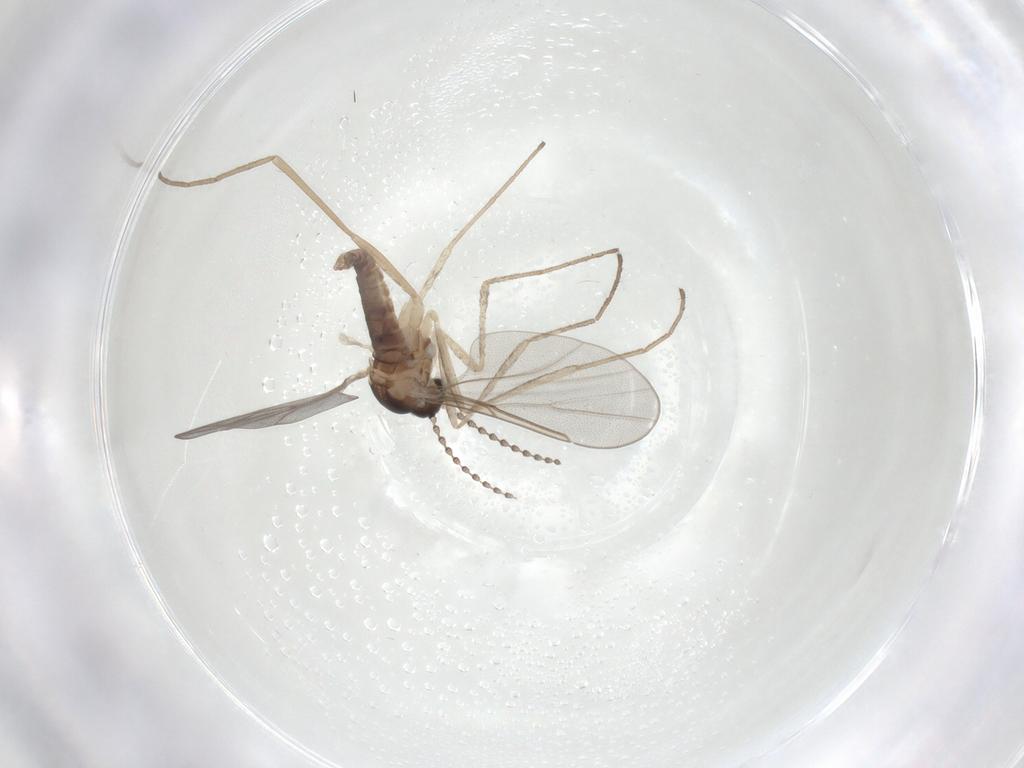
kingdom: Animalia
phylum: Arthropoda
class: Insecta
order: Diptera
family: Cecidomyiidae
